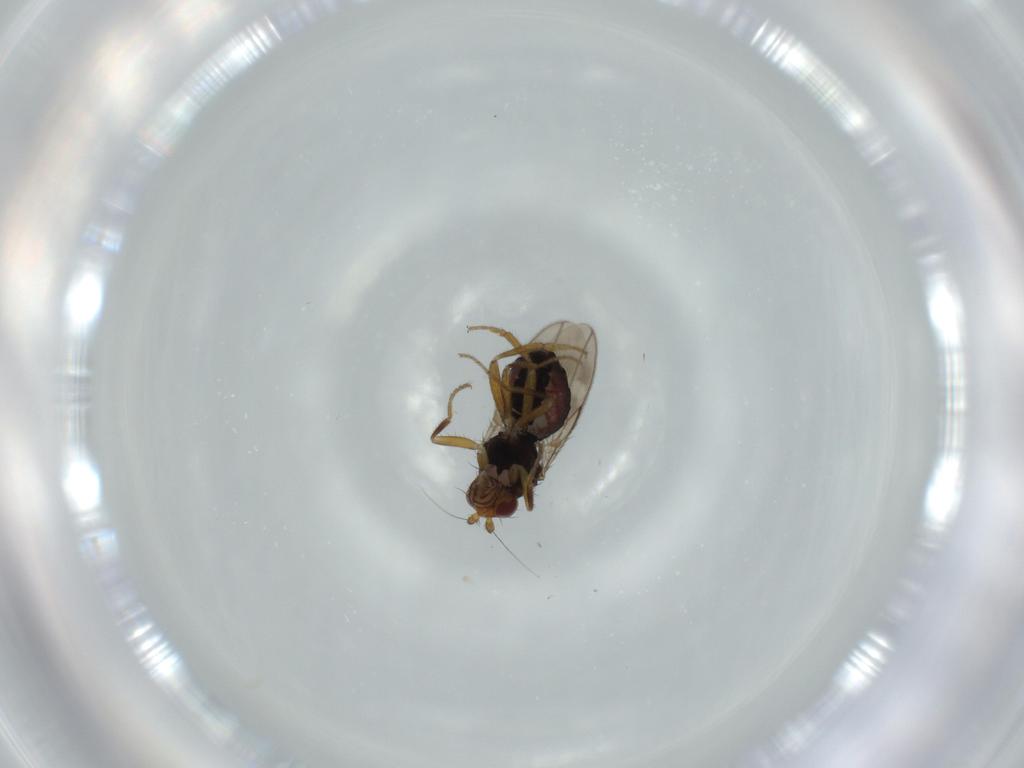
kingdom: Animalia
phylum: Arthropoda
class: Insecta
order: Diptera
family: Sphaeroceridae
